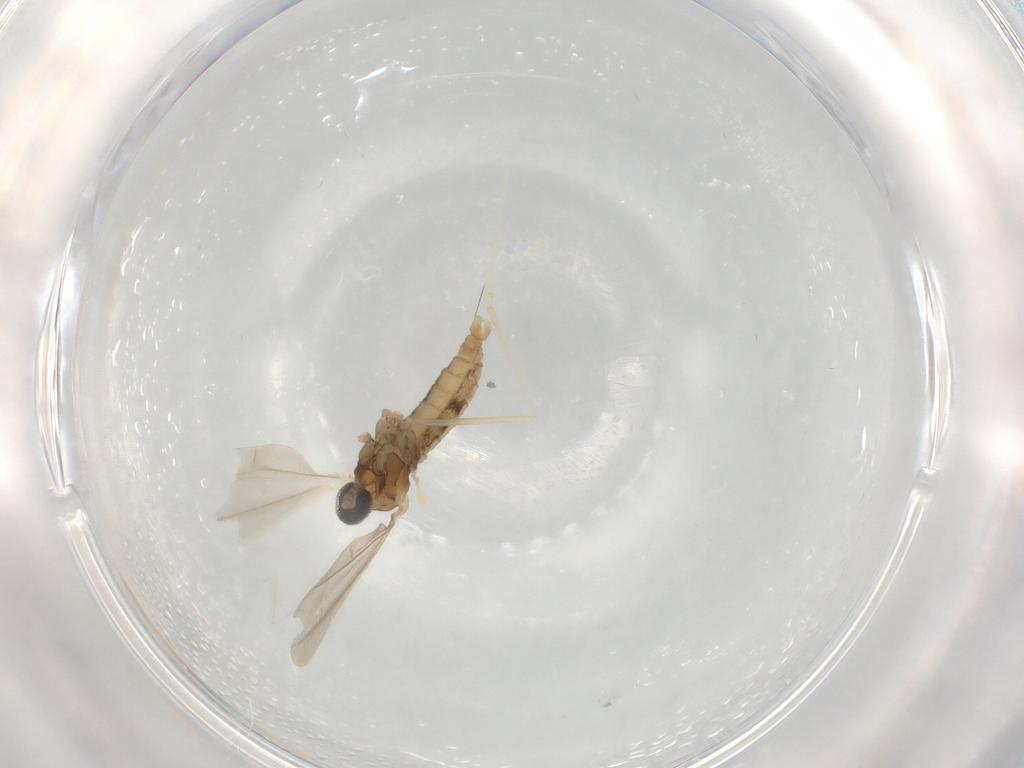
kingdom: Animalia
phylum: Arthropoda
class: Insecta
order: Diptera
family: Cecidomyiidae
